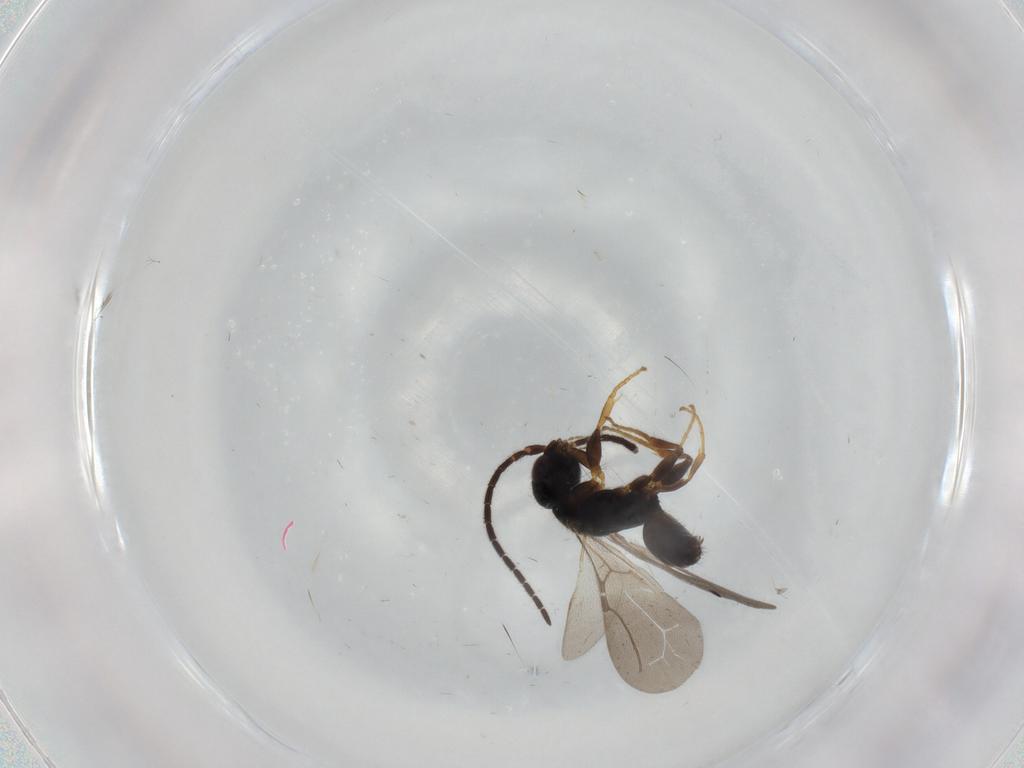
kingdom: Animalia
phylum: Arthropoda
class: Insecta
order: Hymenoptera
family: Bethylidae
